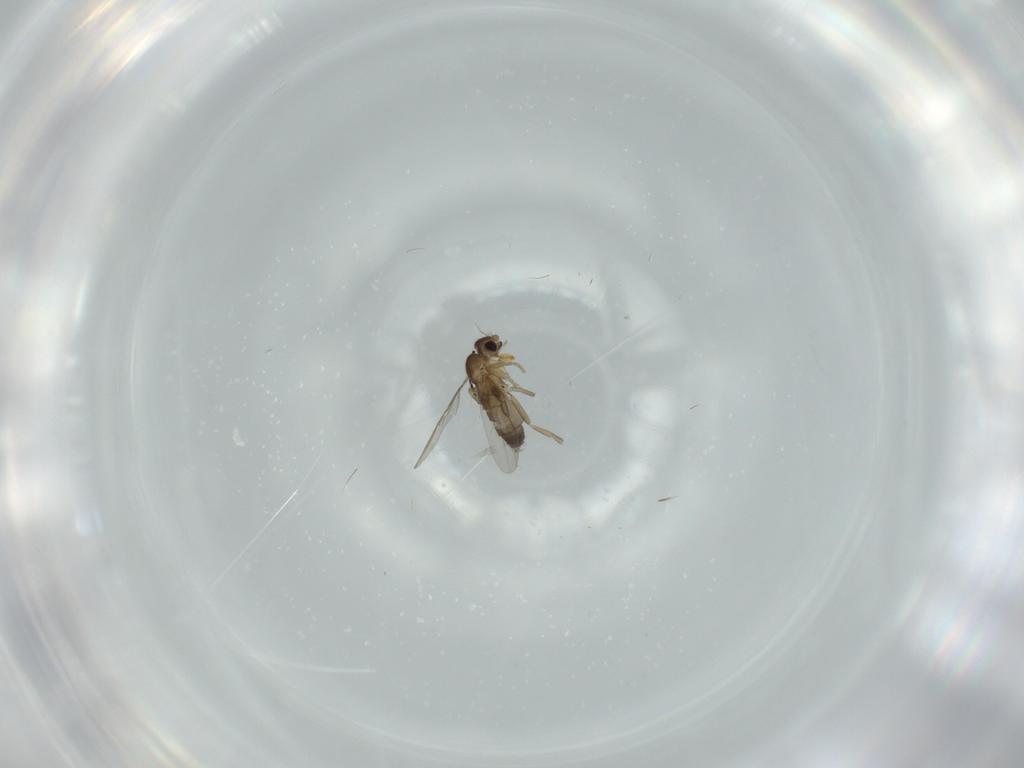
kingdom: Animalia
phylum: Arthropoda
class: Insecta
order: Diptera
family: Phoridae
